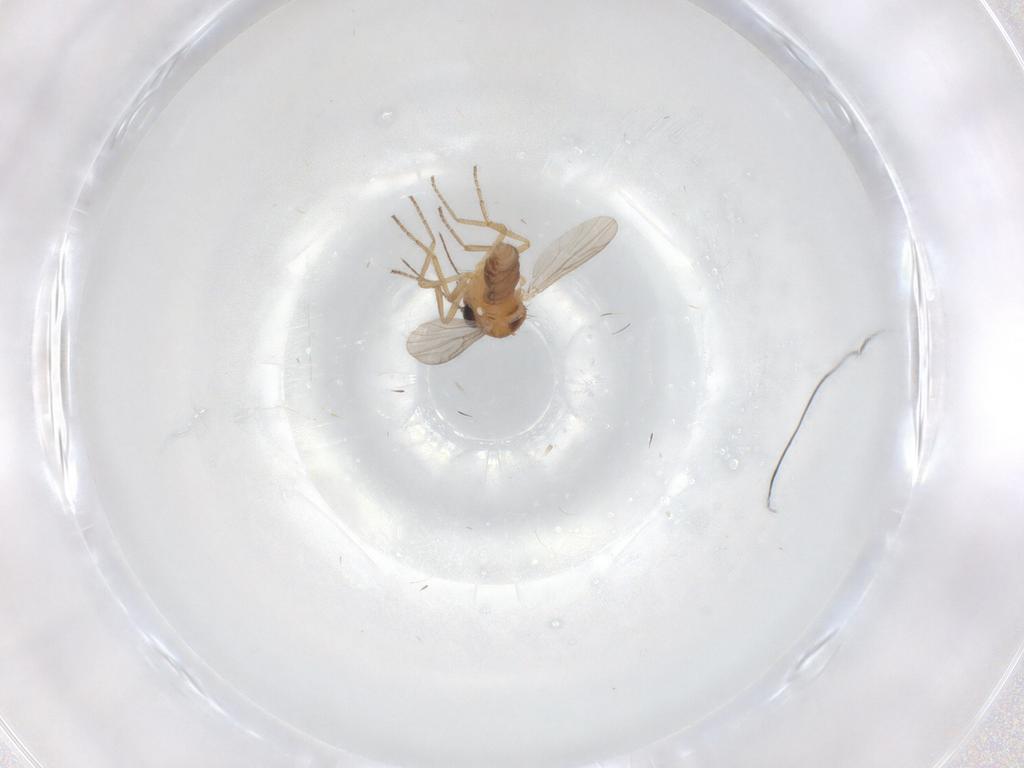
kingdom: Animalia
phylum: Arthropoda
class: Insecta
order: Diptera
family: Ceratopogonidae
